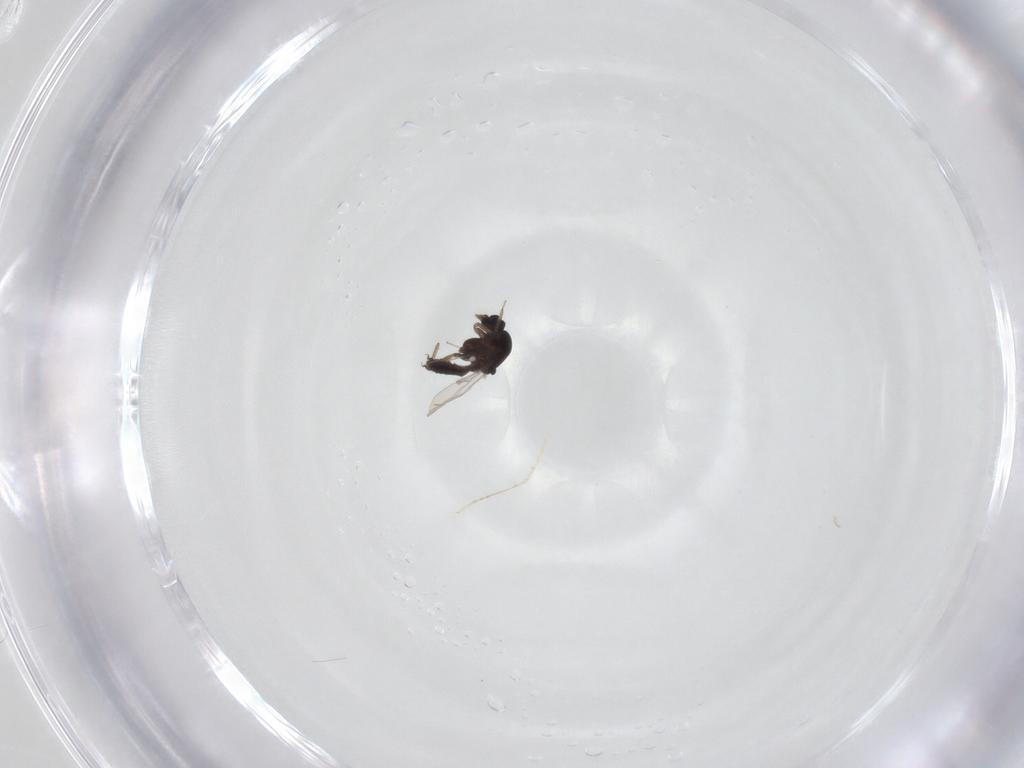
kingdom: Animalia
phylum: Arthropoda
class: Insecta
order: Diptera
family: Ceratopogonidae
